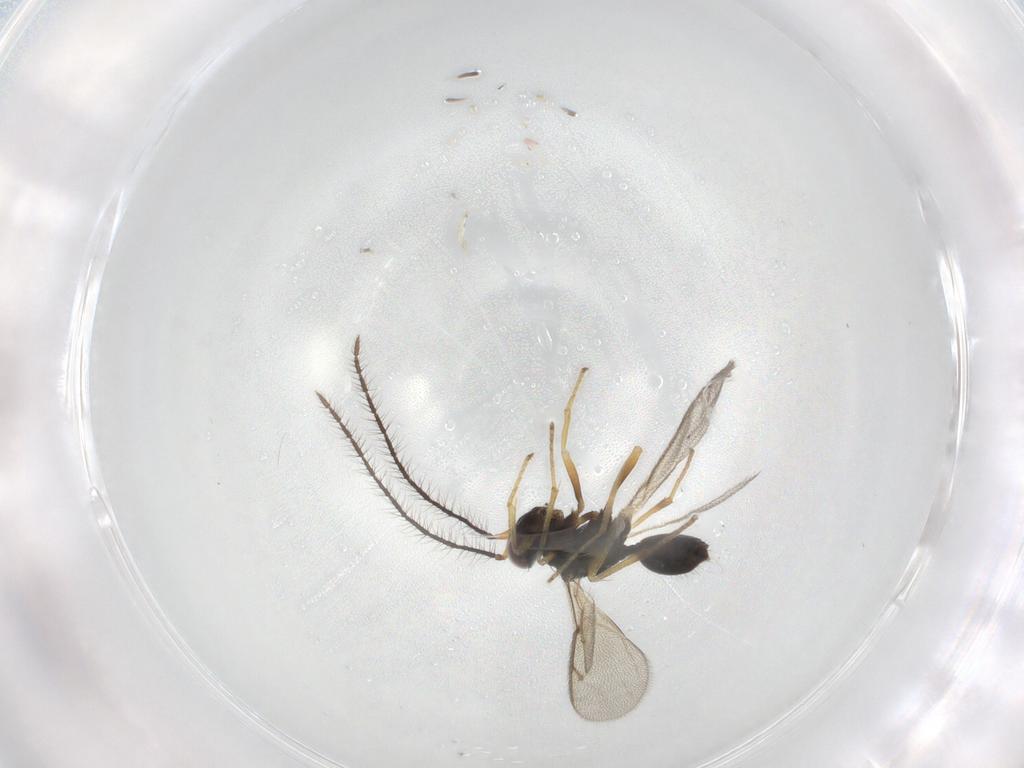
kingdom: Animalia
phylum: Arthropoda
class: Insecta
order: Hymenoptera
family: Diparidae
